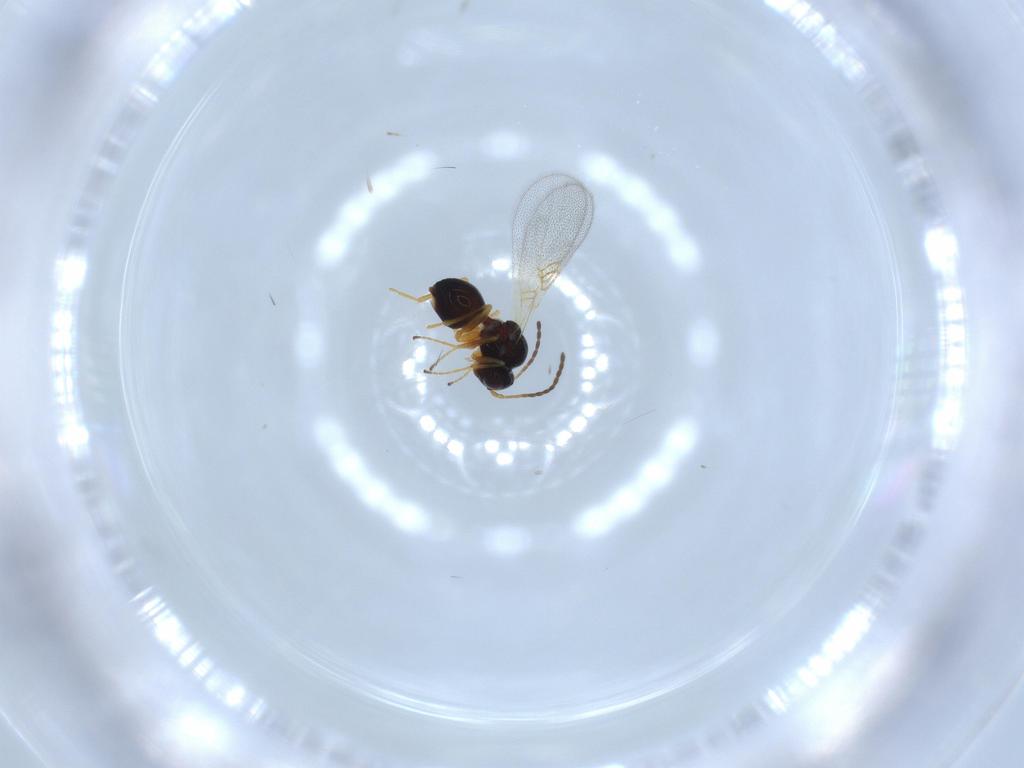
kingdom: Animalia
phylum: Arthropoda
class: Insecta
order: Hymenoptera
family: Figitidae
